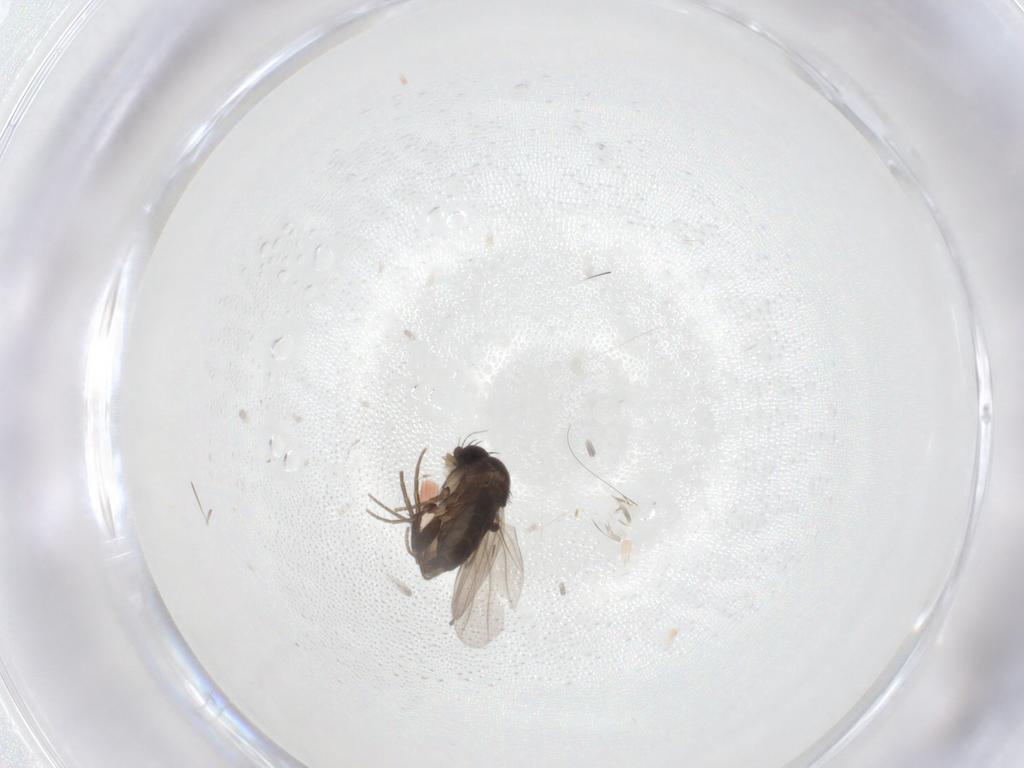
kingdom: Animalia
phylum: Arthropoda
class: Insecta
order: Diptera
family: Phoridae
